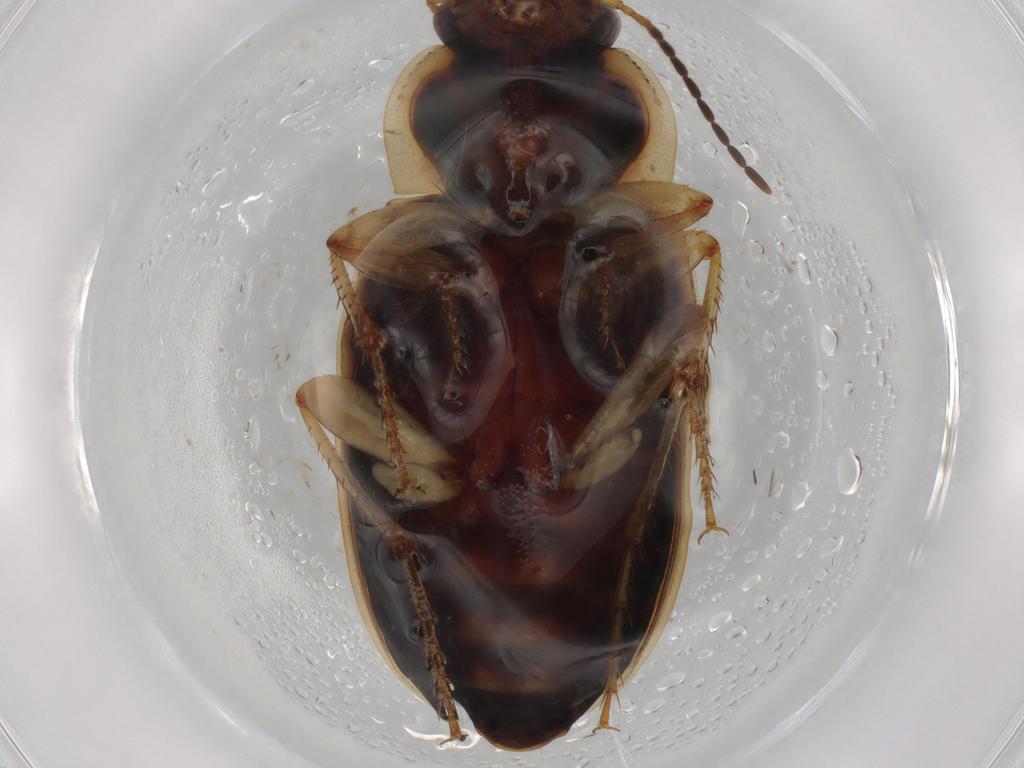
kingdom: Animalia
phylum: Arthropoda
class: Insecta
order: Coleoptera
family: Carabidae
